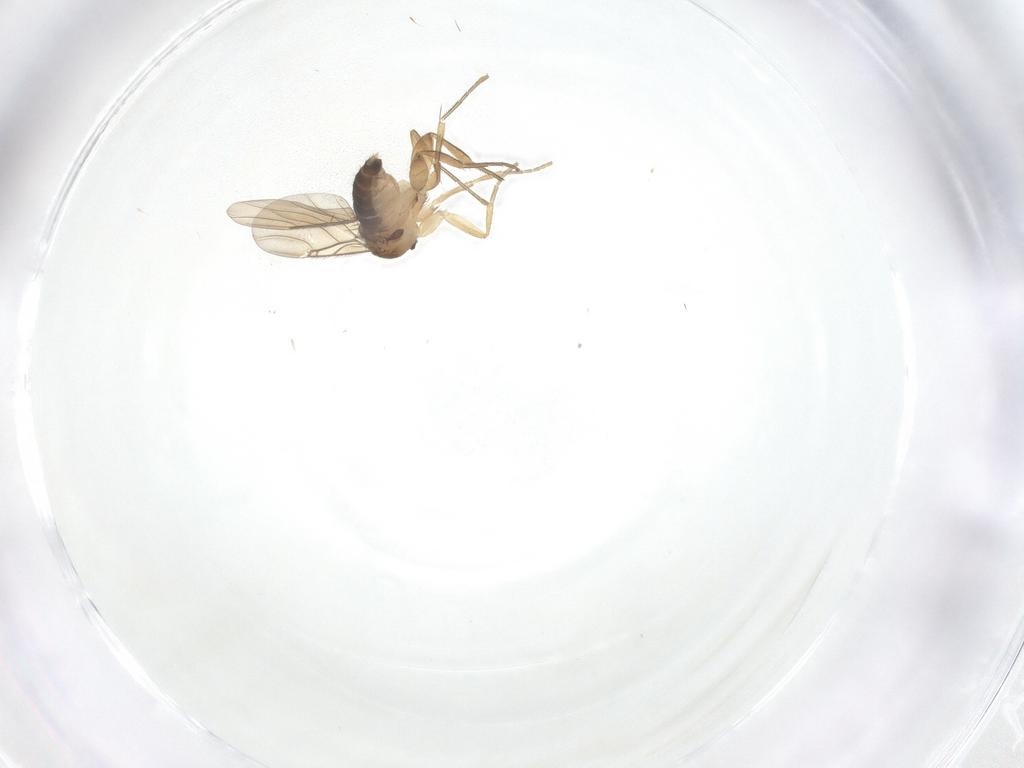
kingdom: Animalia
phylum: Arthropoda
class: Insecta
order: Diptera
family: Phoridae
